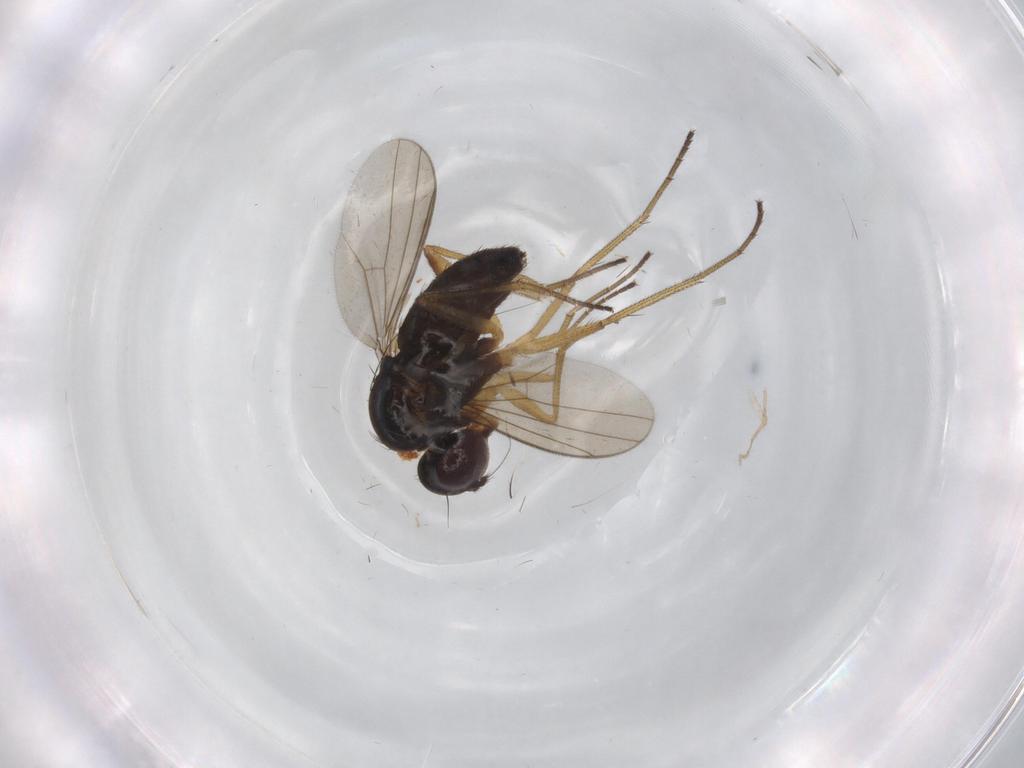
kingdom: Animalia
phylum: Arthropoda
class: Insecta
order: Diptera
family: Dolichopodidae
